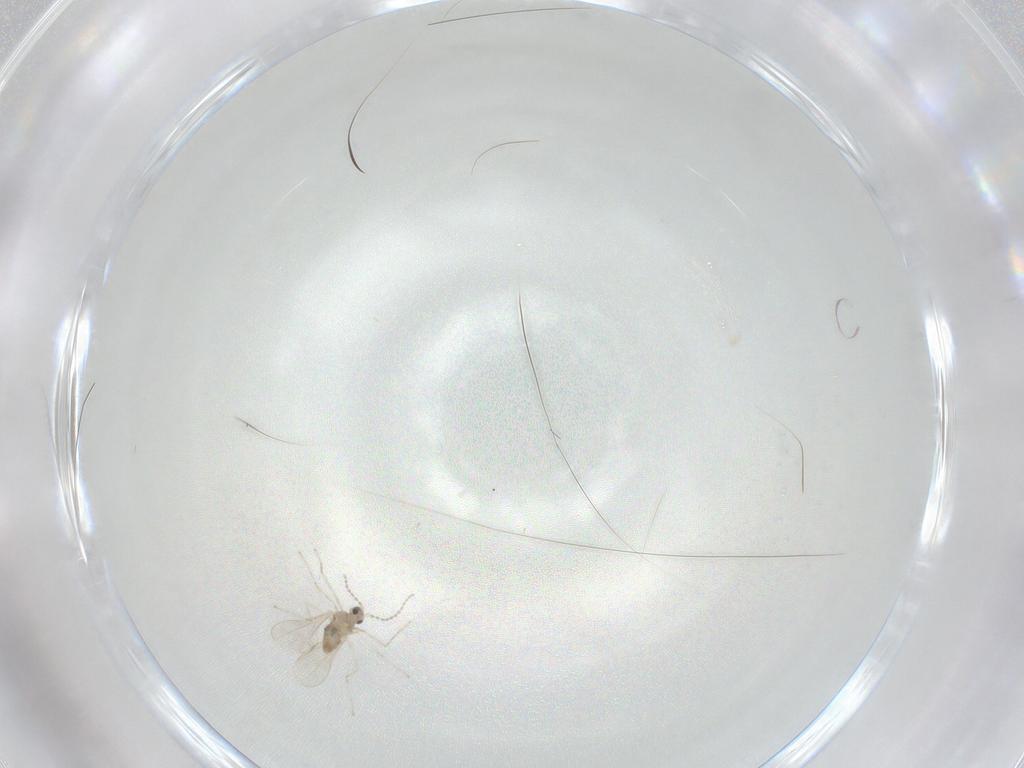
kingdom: Animalia
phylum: Arthropoda
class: Insecta
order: Diptera
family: Cecidomyiidae
